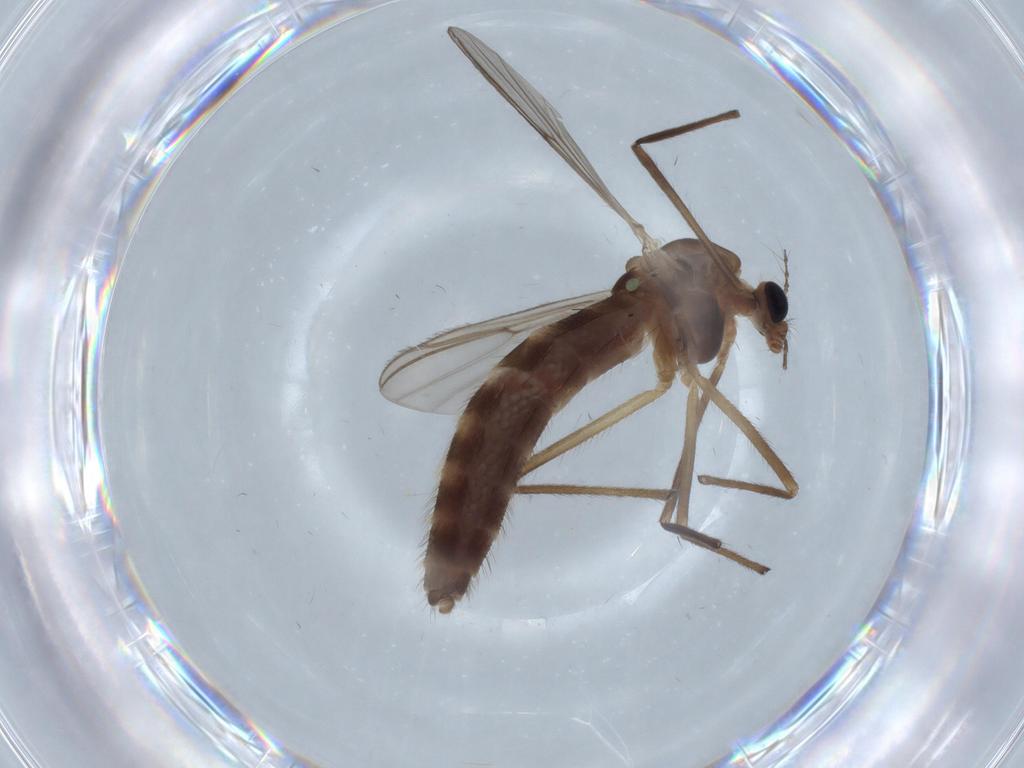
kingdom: Animalia
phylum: Arthropoda
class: Insecta
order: Diptera
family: Chironomidae
